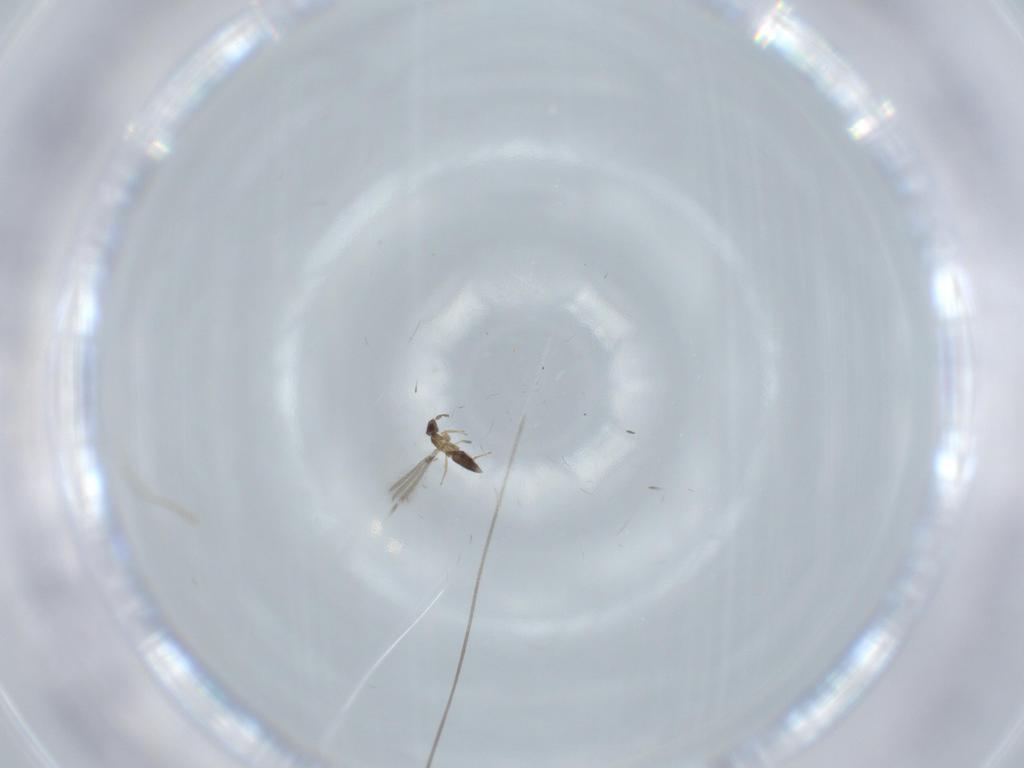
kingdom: Animalia
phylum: Arthropoda
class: Insecta
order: Hymenoptera
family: Mymaridae
